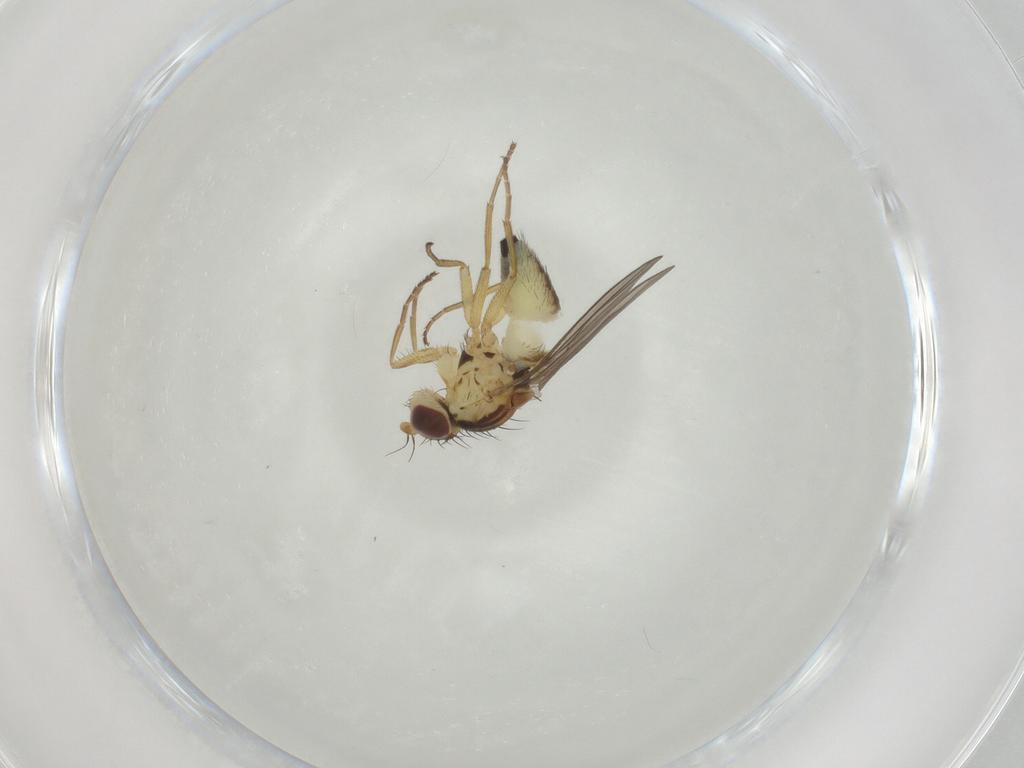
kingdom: Animalia
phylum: Arthropoda
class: Insecta
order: Diptera
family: Agromyzidae
